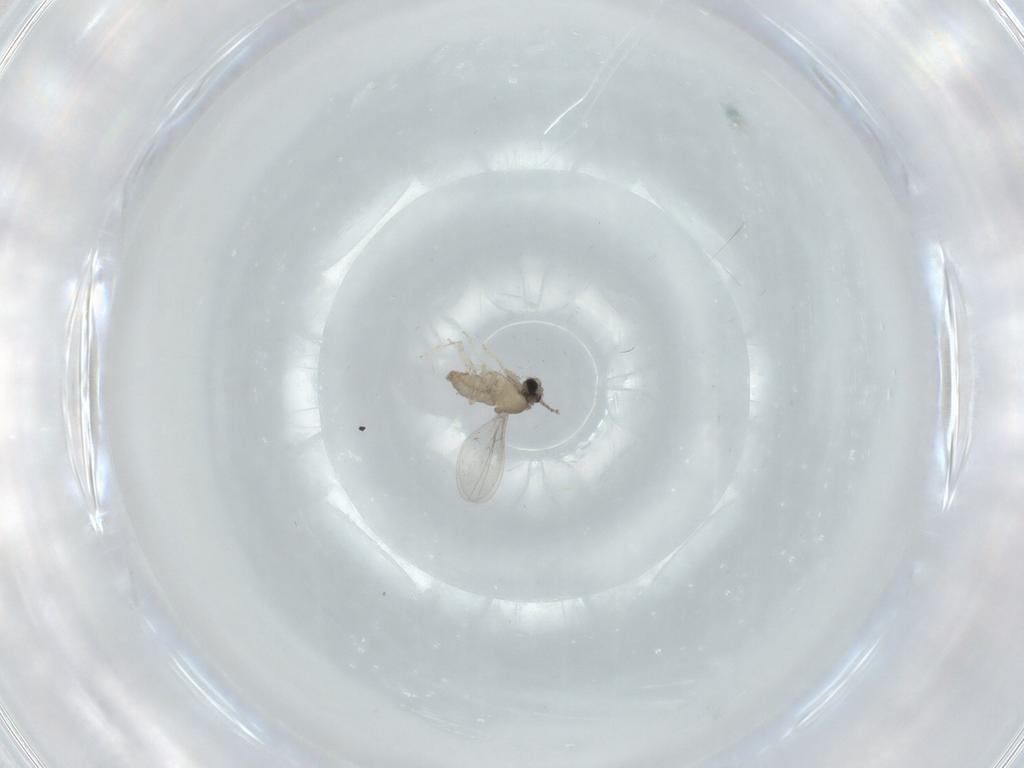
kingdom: Animalia
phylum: Arthropoda
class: Insecta
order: Diptera
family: Cecidomyiidae
